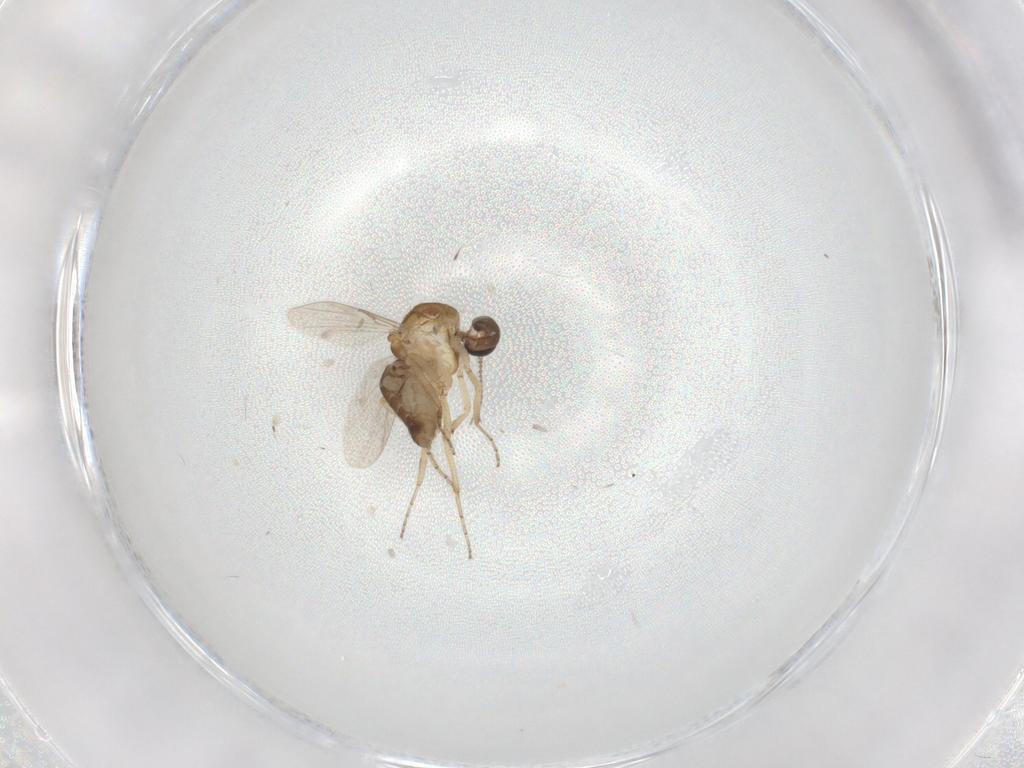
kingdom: Animalia
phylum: Arthropoda
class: Insecta
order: Diptera
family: Ceratopogonidae
